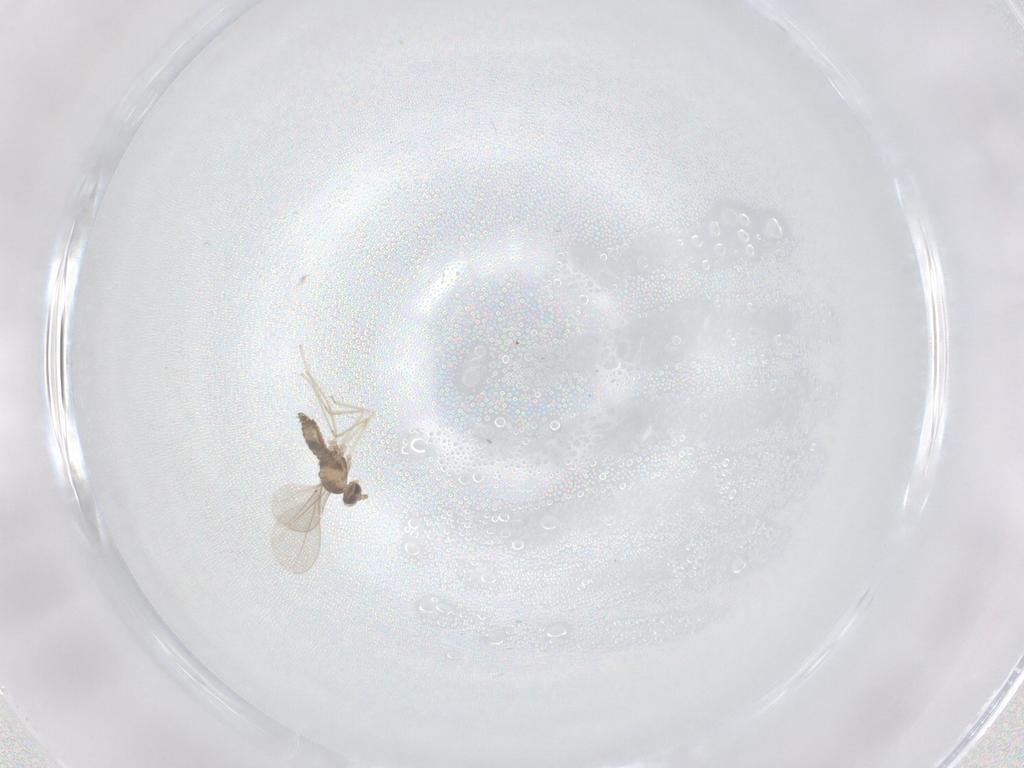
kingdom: Animalia
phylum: Arthropoda
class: Insecta
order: Diptera
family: Cecidomyiidae
